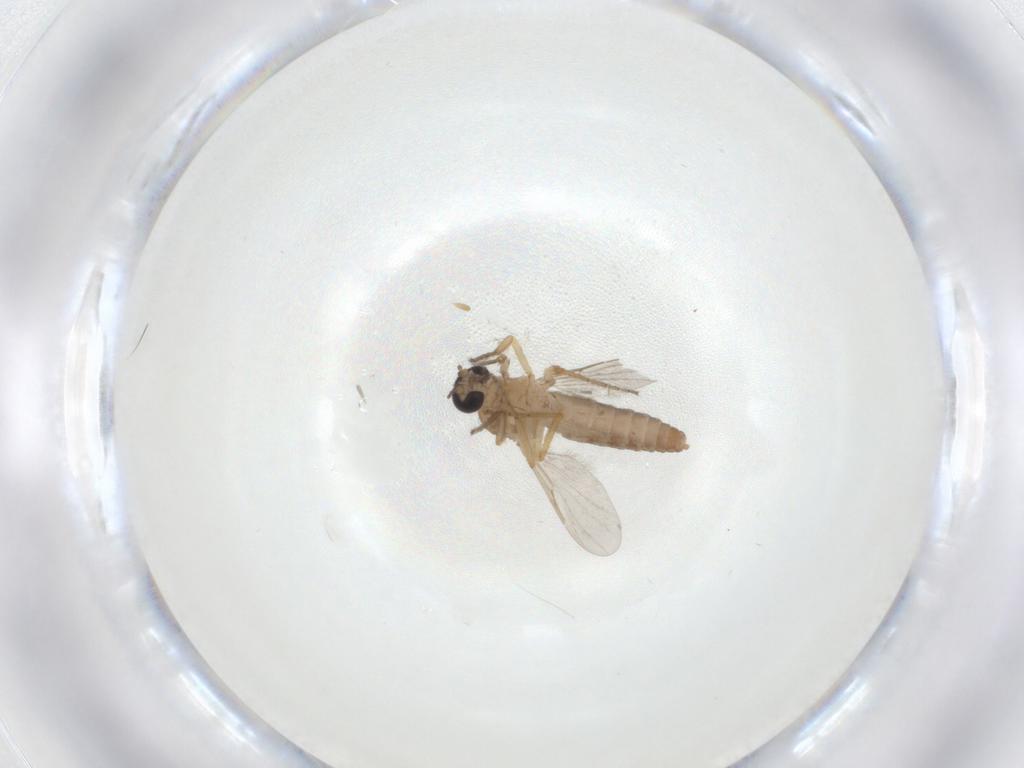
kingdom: Animalia
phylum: Arthropoda
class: Insecta
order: Diptera
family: Ceratopogonidae
